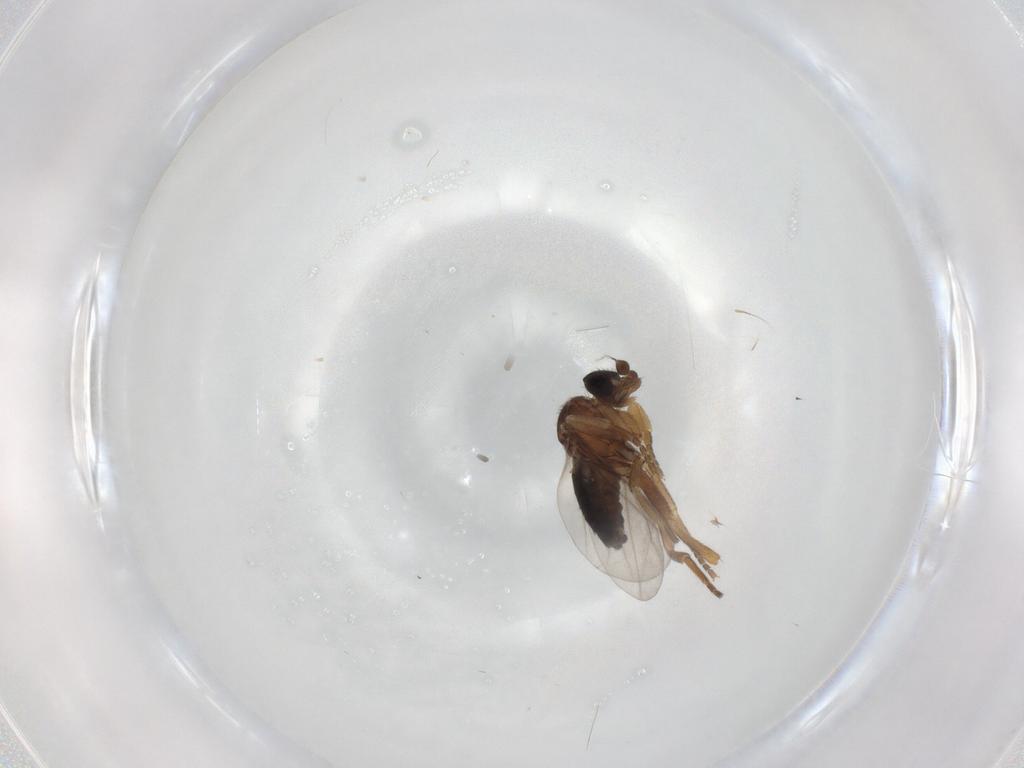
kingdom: Animalia
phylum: Arthropoda
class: Insecta
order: Diptera
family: Phoridae
